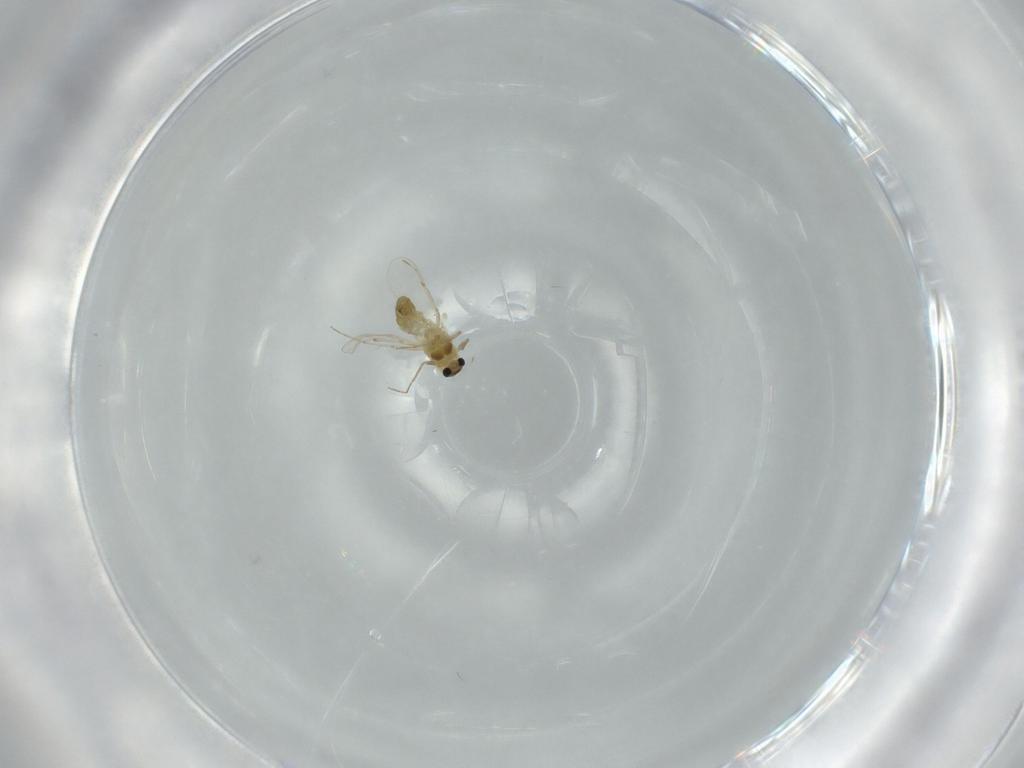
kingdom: Animalia
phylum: Arthropoda
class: Insecta
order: Diptera
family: Chironomidae
